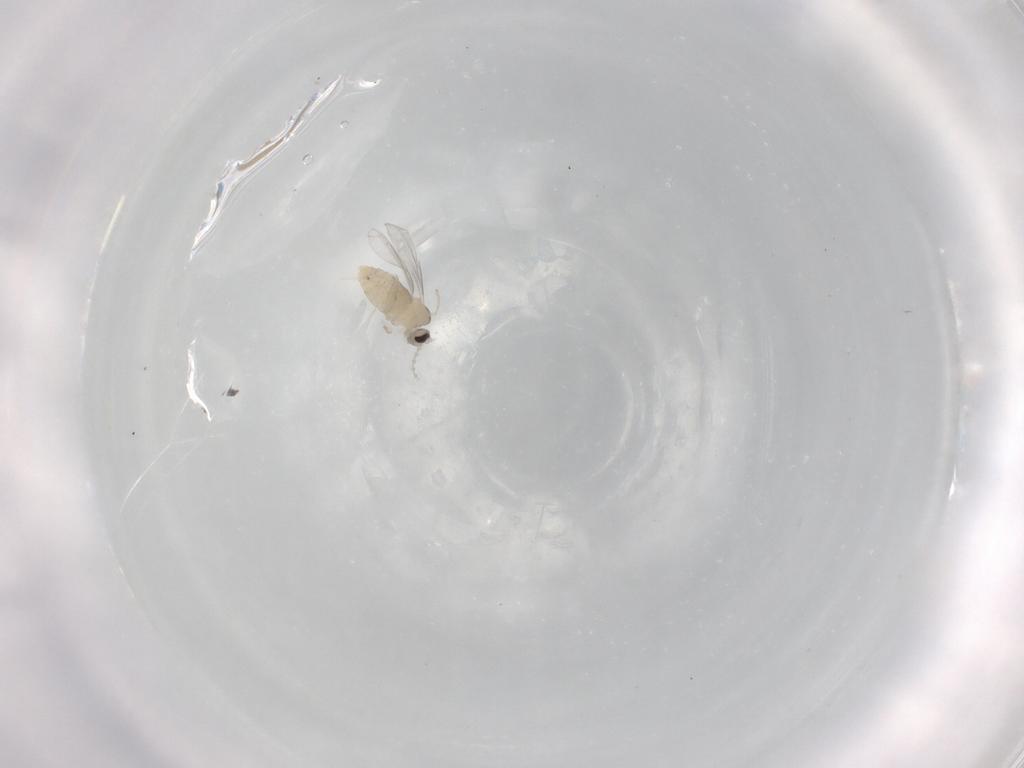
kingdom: Animalia
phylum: Arthropoda
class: Insecta
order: Diptera
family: Cecidomyiidae
